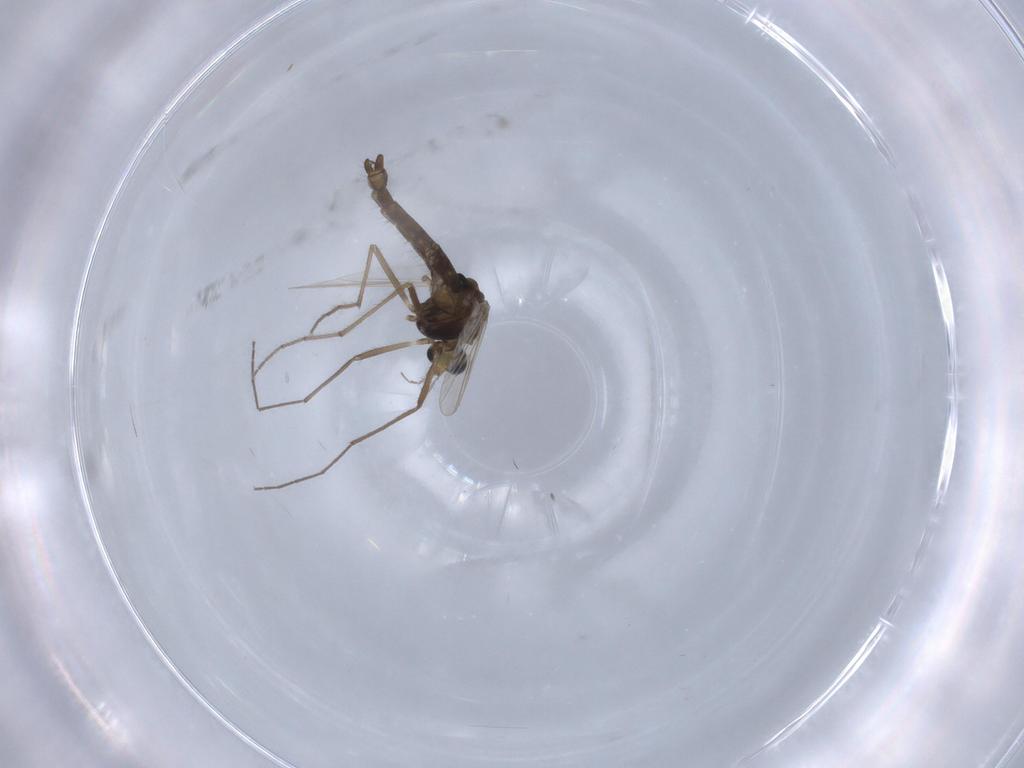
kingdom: Animalia
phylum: Arthropoda
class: Insecta
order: Diptera
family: Chironomidae
